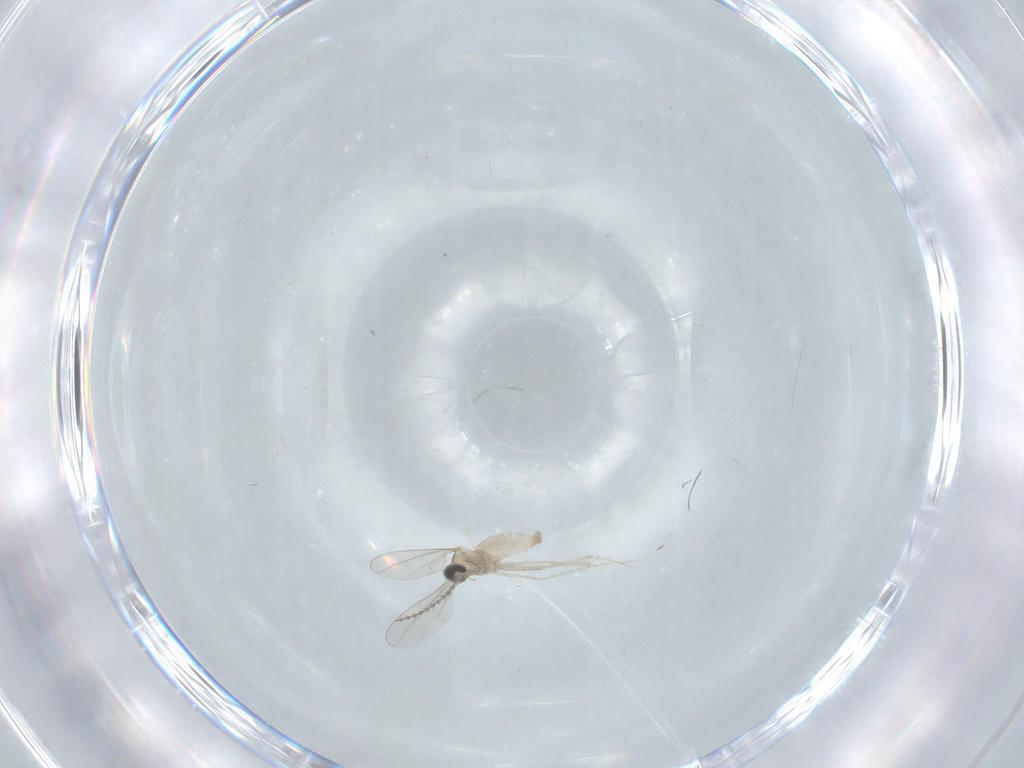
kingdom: Animalia
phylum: Arthropoda
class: Insecta
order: Diptera
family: Cecidomyiidae
